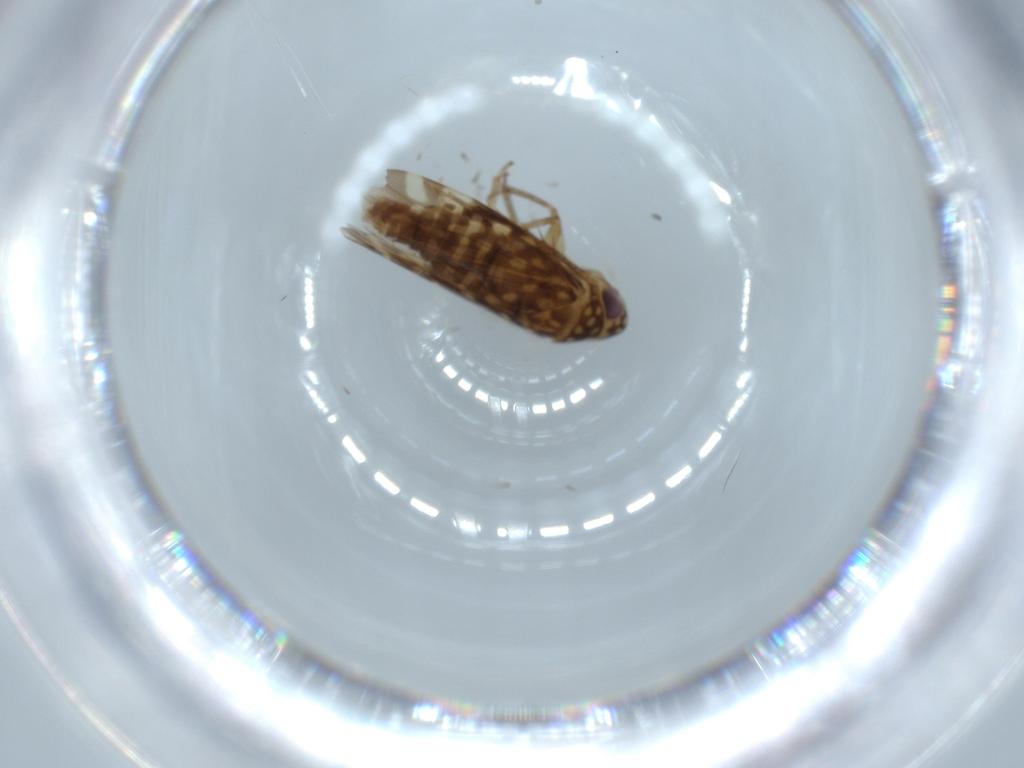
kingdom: Animalia
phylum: Arthropoda
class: Insecta
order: Hemiptera
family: Cicadellidae
